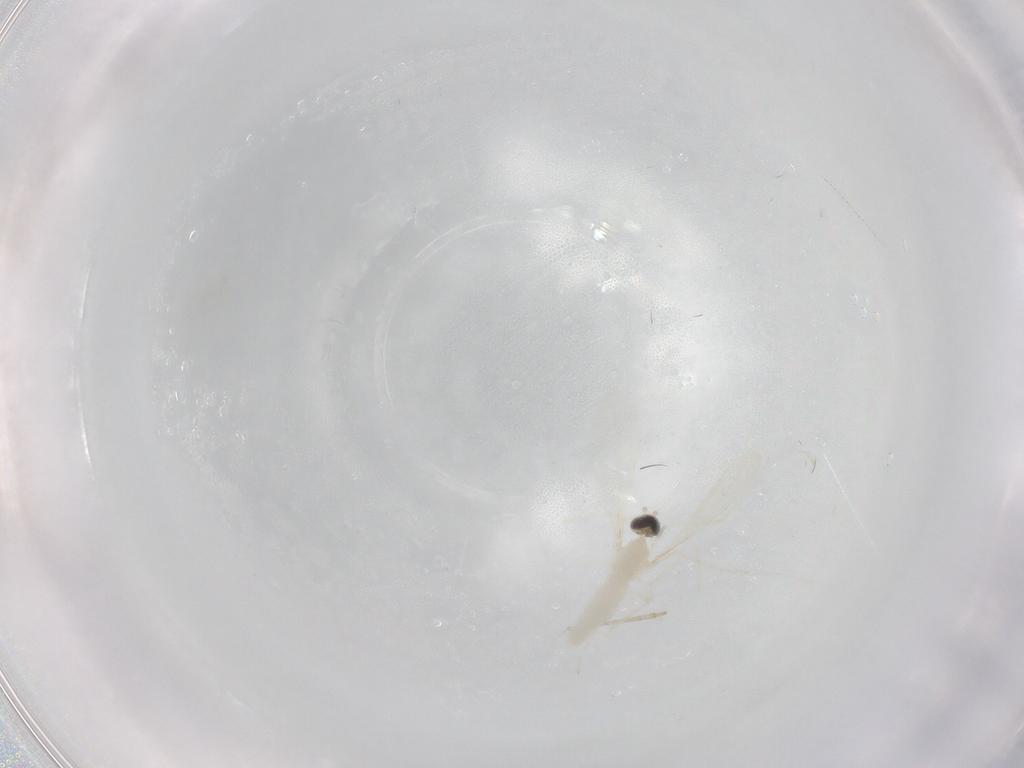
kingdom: Animalia
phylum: Arthropoda
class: Insecta
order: Diptera
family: Cecidomyiidae
